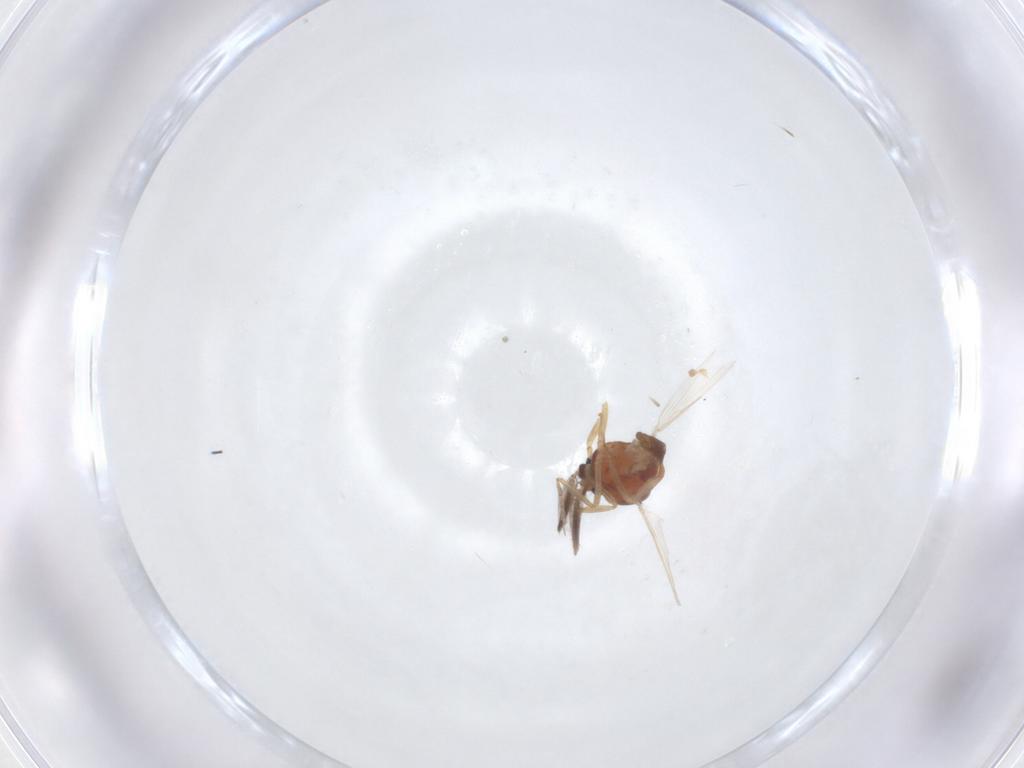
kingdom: Animalia
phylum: Arthropoda
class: Insecta
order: Diptera
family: Ceratopogonidae
